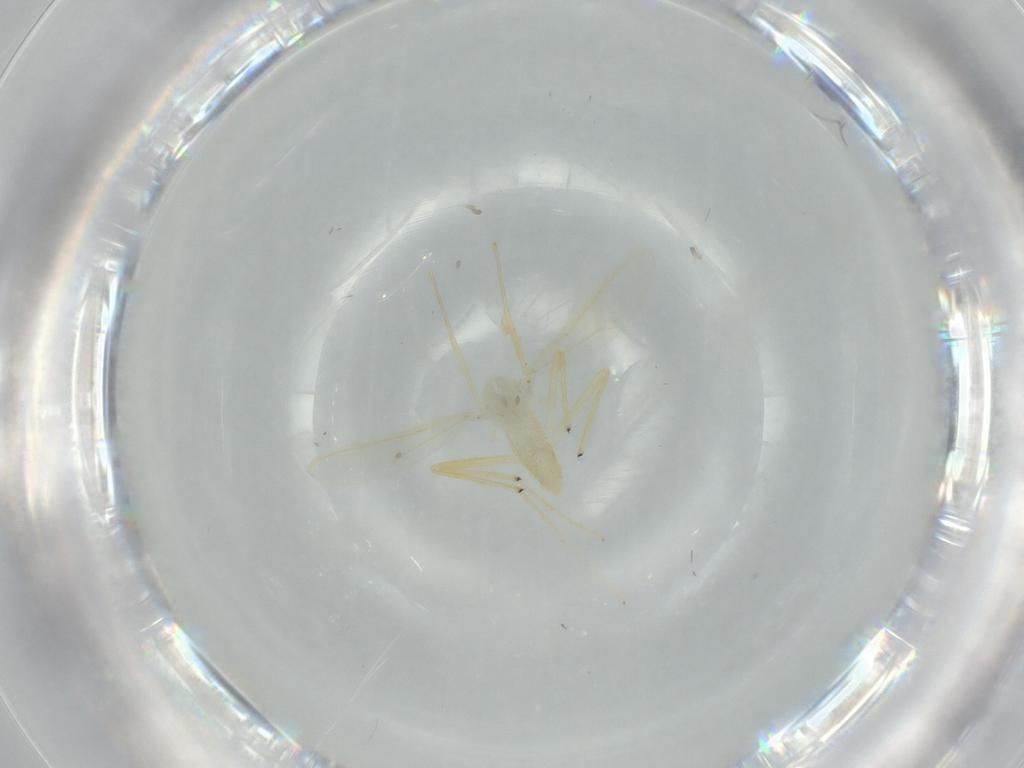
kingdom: Animalia
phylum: Arthropoda
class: Insecta
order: Diptera
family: Chironomidae
